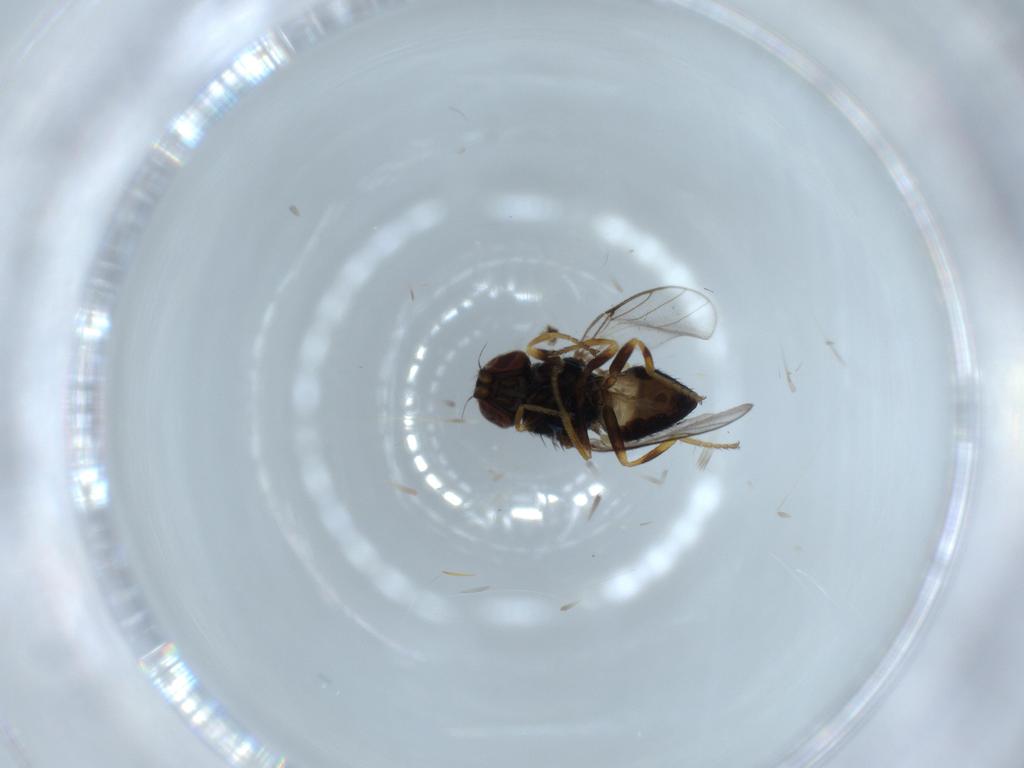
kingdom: Animalia
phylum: Arthropoda
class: Insecta
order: Diptera
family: Chloropidae
